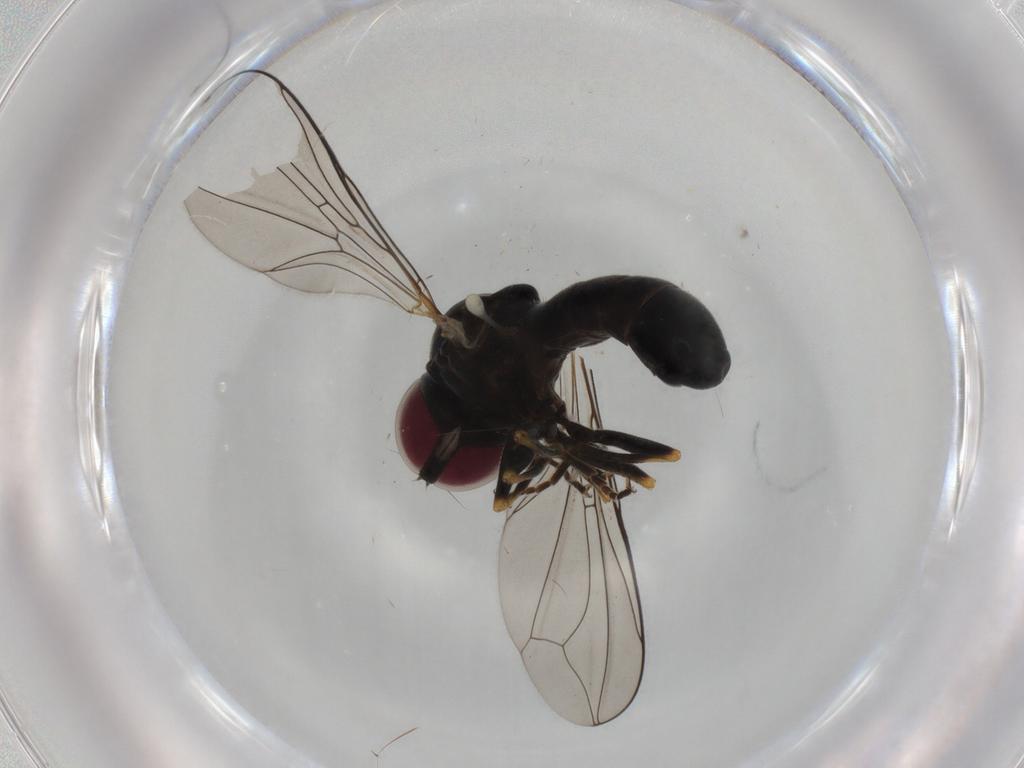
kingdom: Animalia
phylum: Arthropoda
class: Insecta
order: Diptera
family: Pipunculidae
